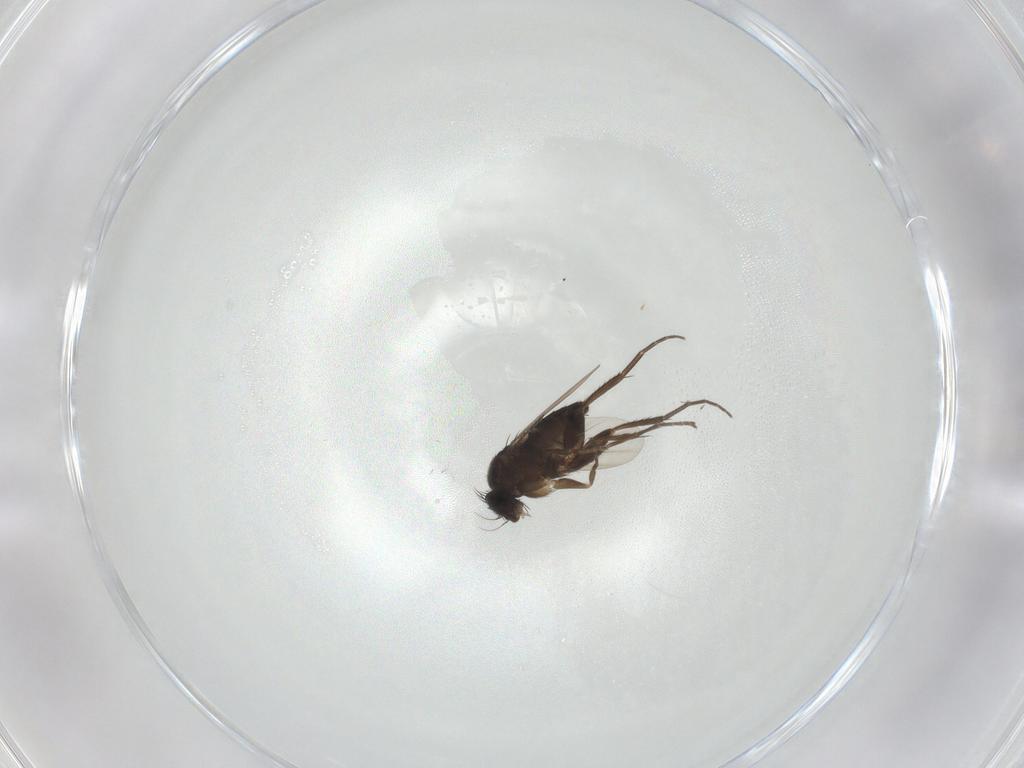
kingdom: Animalia
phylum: Arthropoda
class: Insecta
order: Diptera
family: Phoridae
